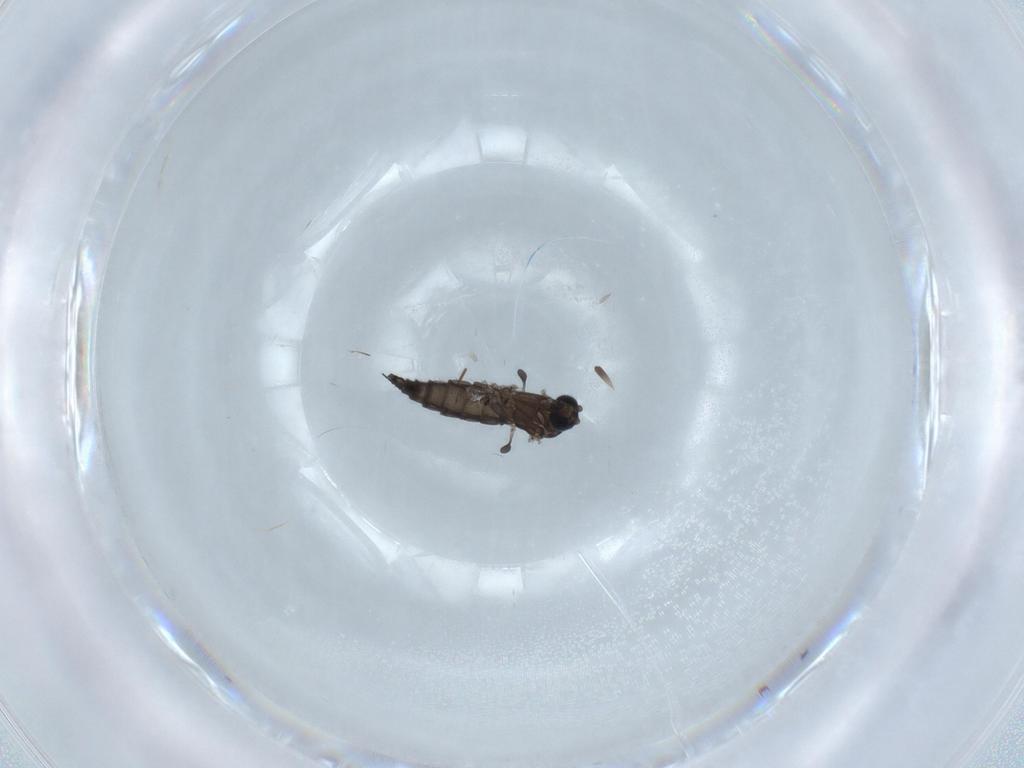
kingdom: Animalia
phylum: Arthropoda
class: Insecta
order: Diptera
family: Sciaridae
